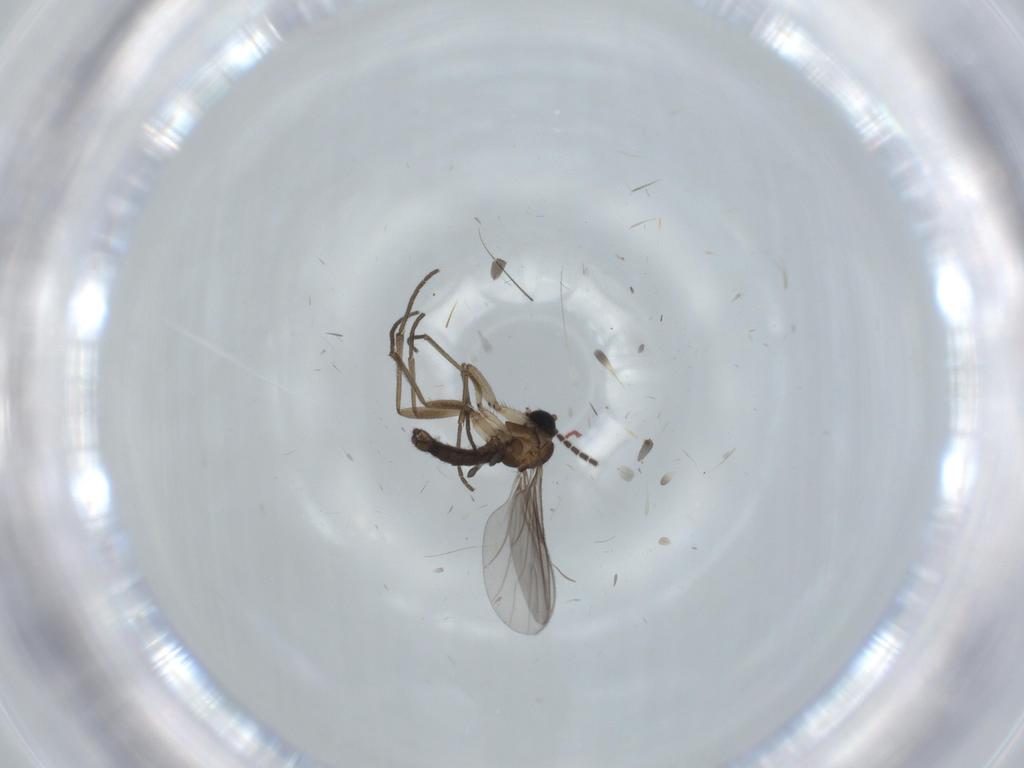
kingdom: Animalia
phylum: Arthropoda
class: Insecta
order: Diptera
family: Sciaridae
